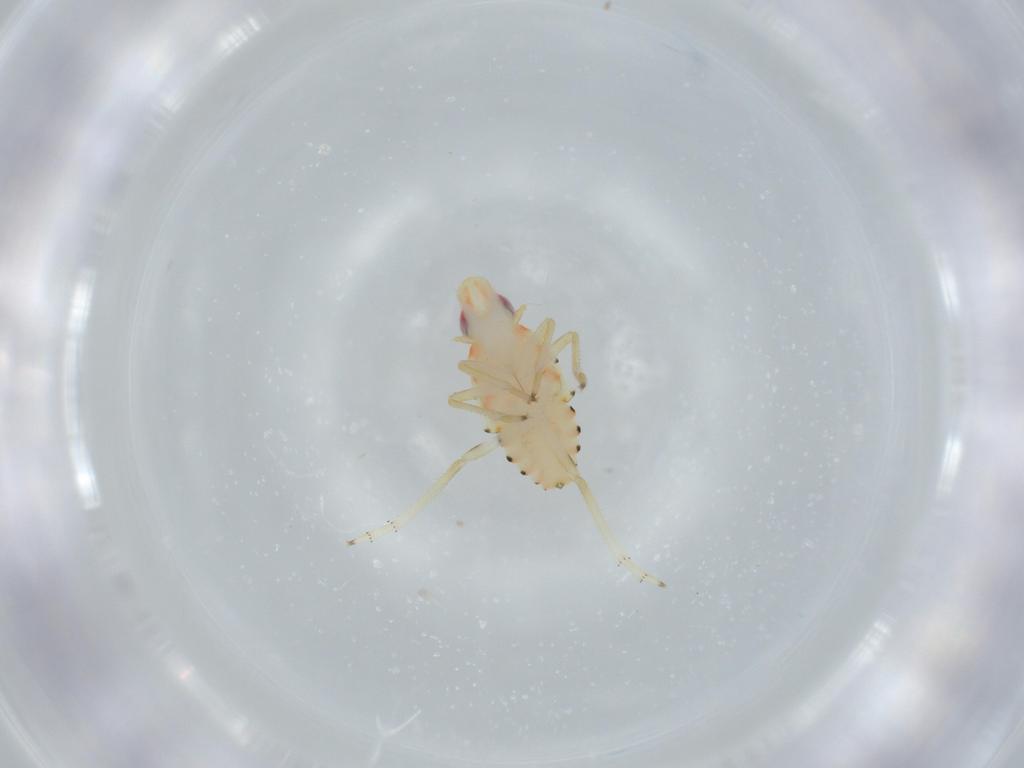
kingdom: Animalia
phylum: Arthropoda
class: Insecta
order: Hemiptera
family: Tropiduchidae
